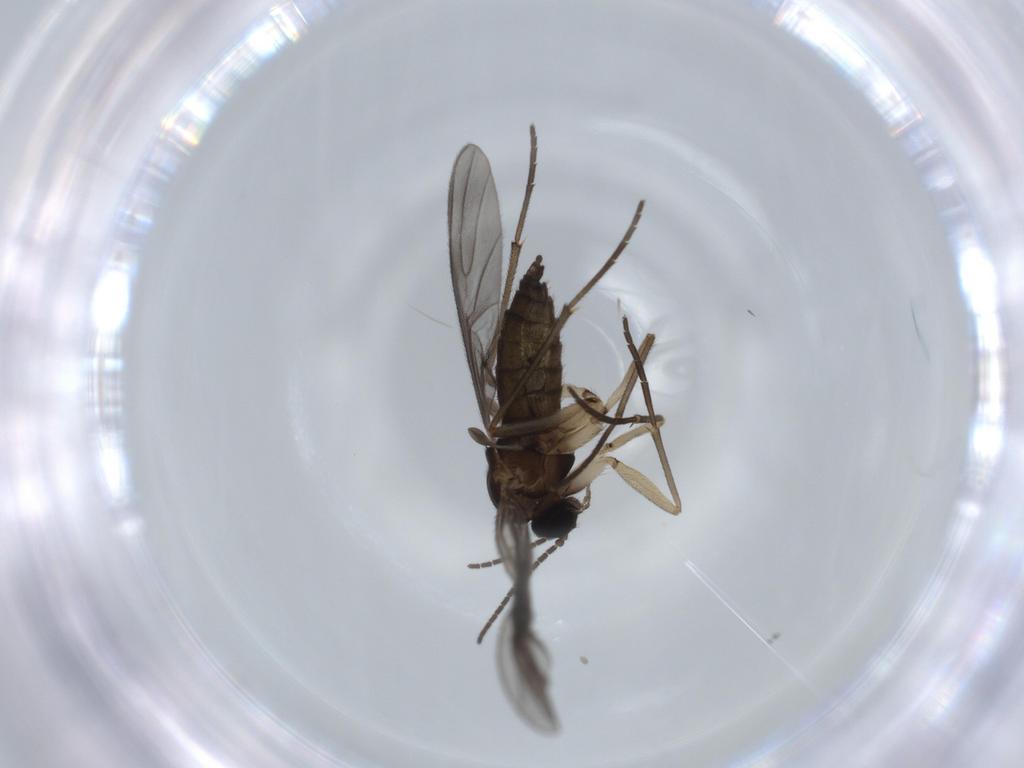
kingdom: Animalia
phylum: Arthropoda
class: Insecta
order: Diptera
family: Sciaridae
